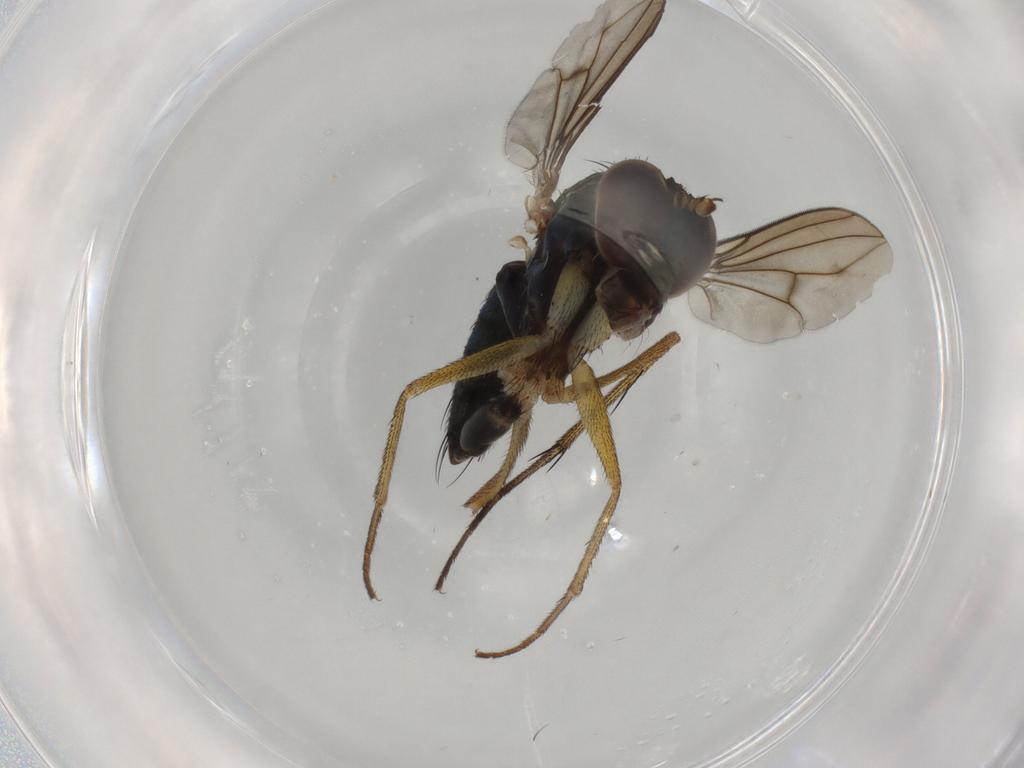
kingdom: Animalia
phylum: Arthropoda
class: Insecta
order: Diptera
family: Dolichopodidae
